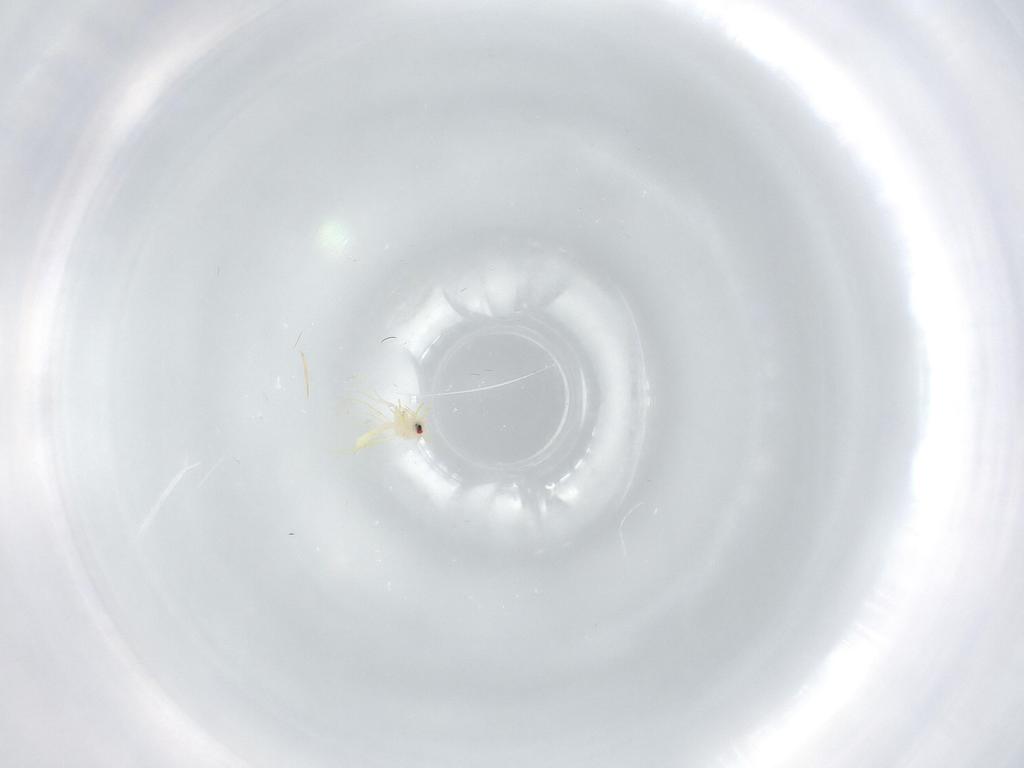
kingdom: Animalia
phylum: Arthropoda
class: Insecta
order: Hemiptera
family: Aleyrodidae
